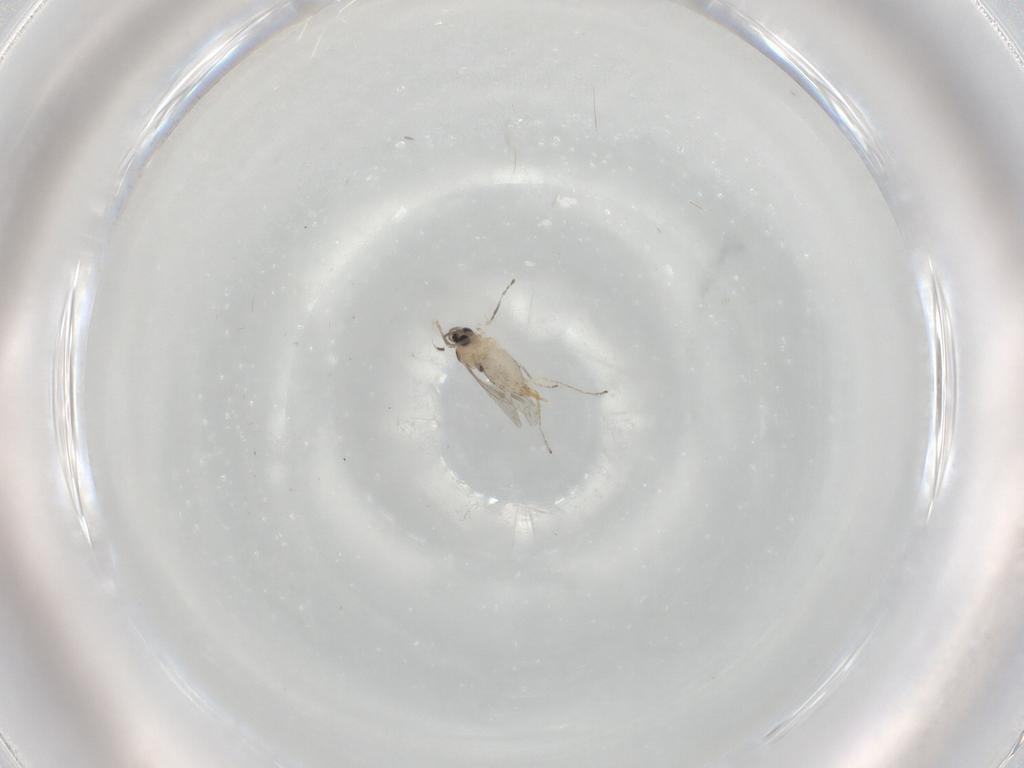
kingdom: Animalia
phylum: Arthropoda
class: Insecta
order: Diptera
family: Cecidomyiidae
